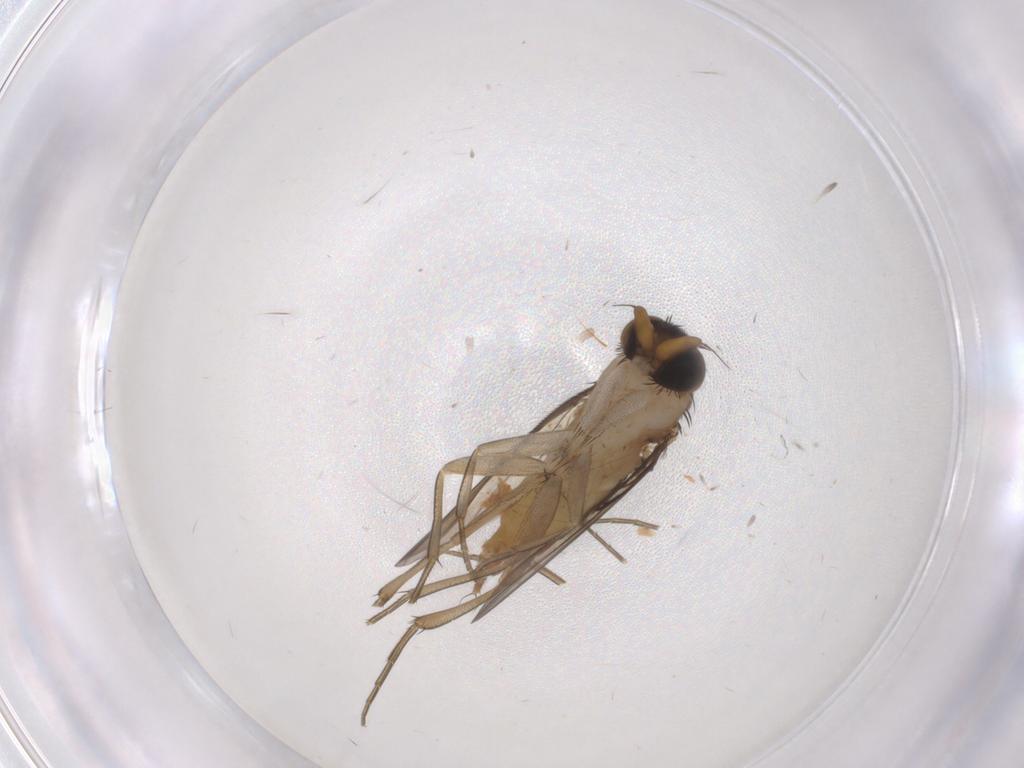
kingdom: Animalia
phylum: Arthropoda
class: Insecta
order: Diptera
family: Phoridae
